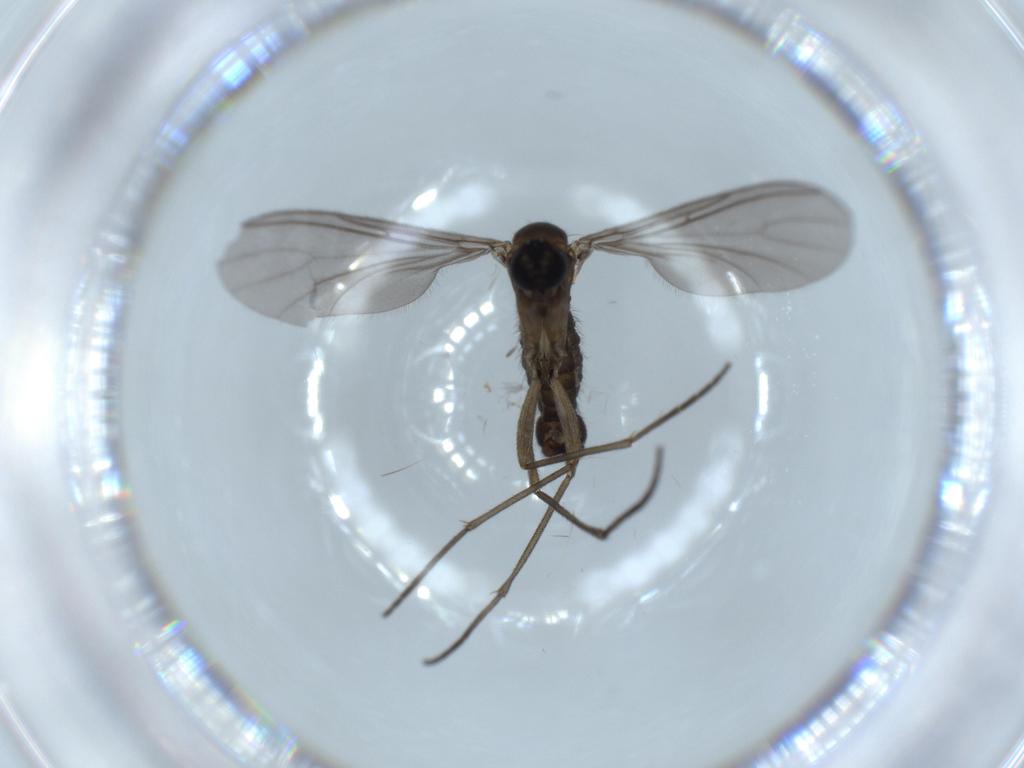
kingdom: Animalia
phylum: Arthropoda
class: Insecta
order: Diptera
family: Sciaridae
